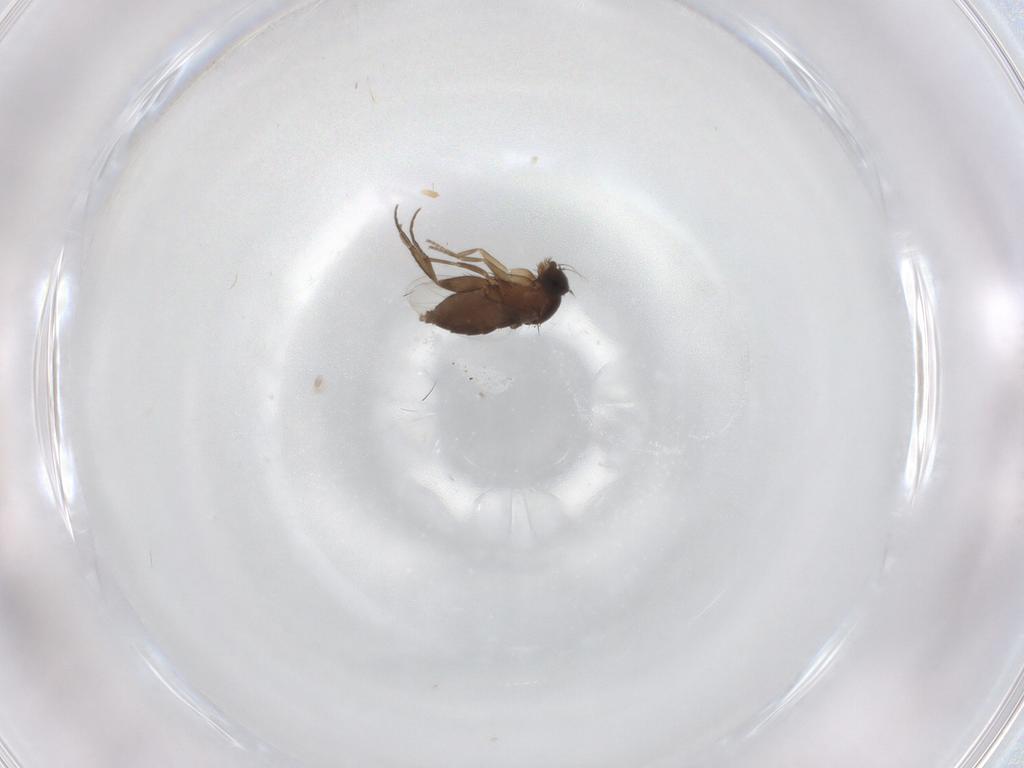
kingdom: Animalia
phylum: Arthropoda
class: Insecta
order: Diptera
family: Phoridae
